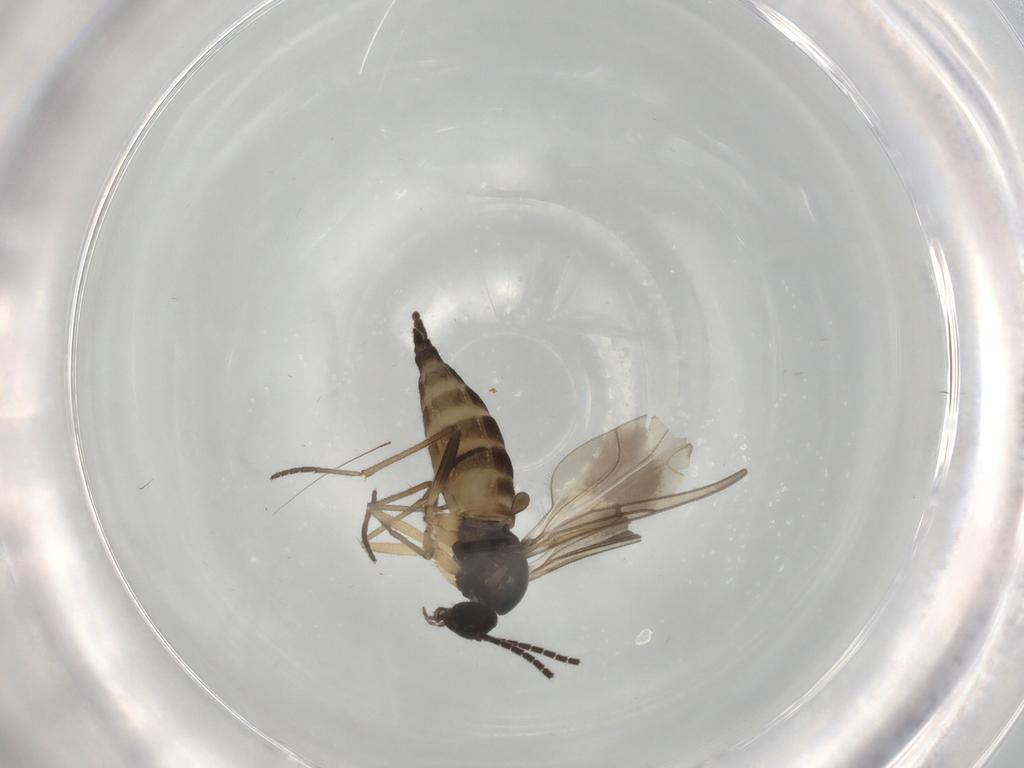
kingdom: Animalia
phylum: Arthropoda
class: Insecta
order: Diptera
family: Sciaridae
